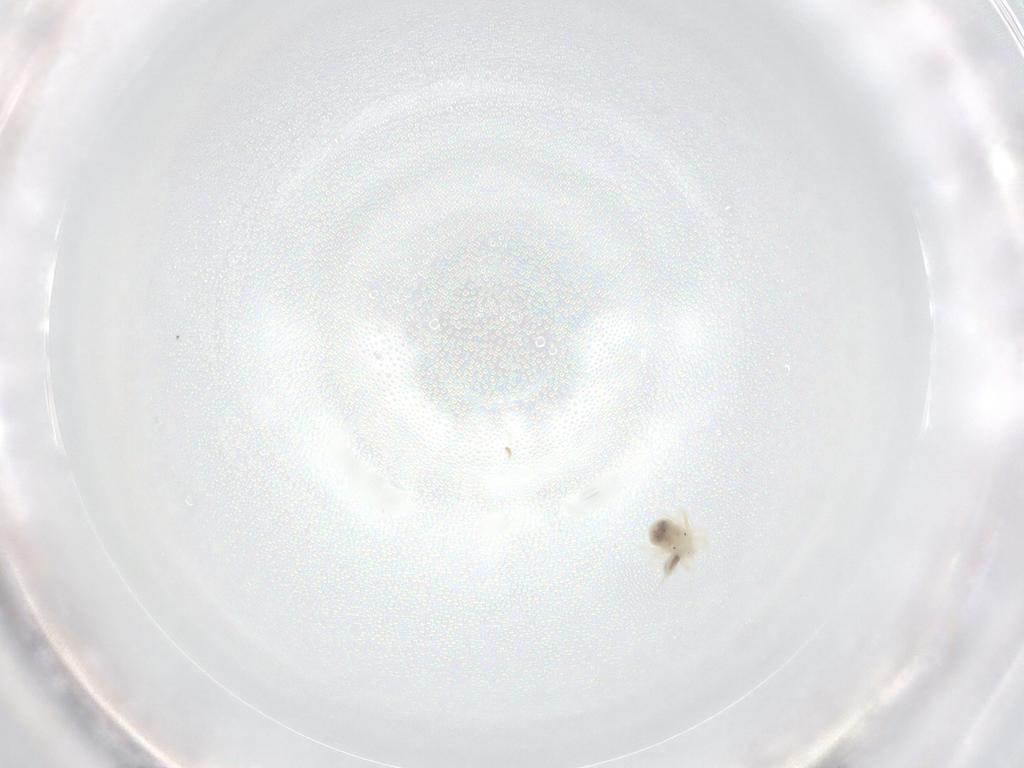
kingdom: Animalia
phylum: Arthropoda
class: Arachnida
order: Trombidiformes
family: Anystidae
